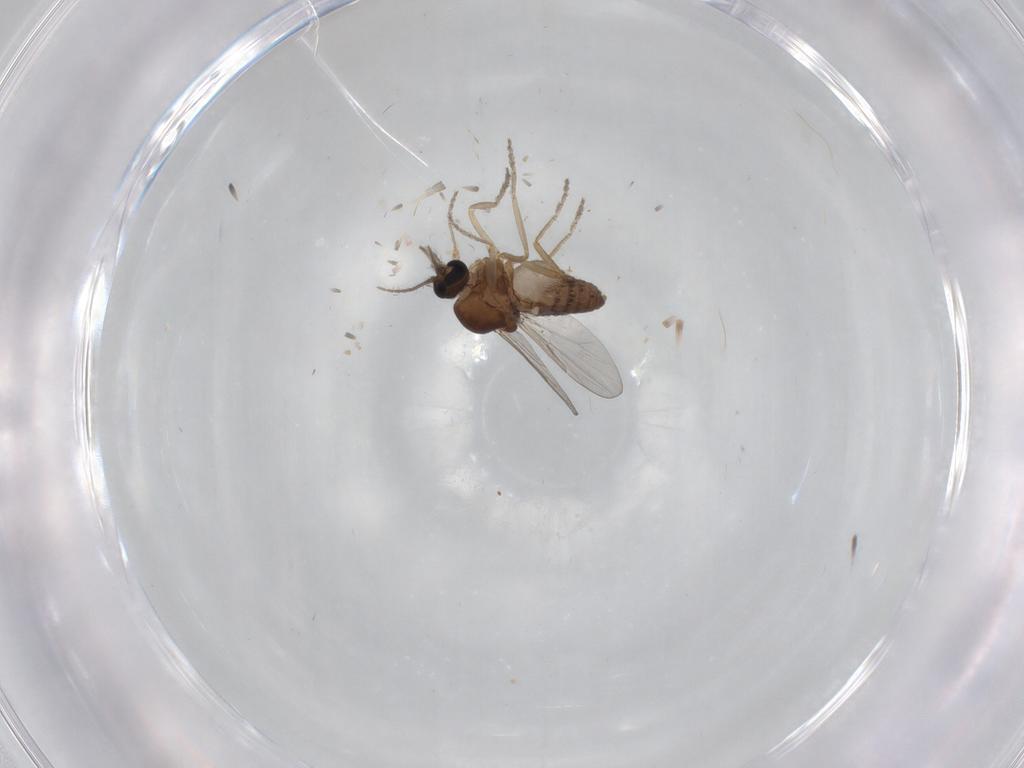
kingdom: Animalia
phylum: Arthropoda
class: Insecta
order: Diptera
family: Ceratopogonidae
